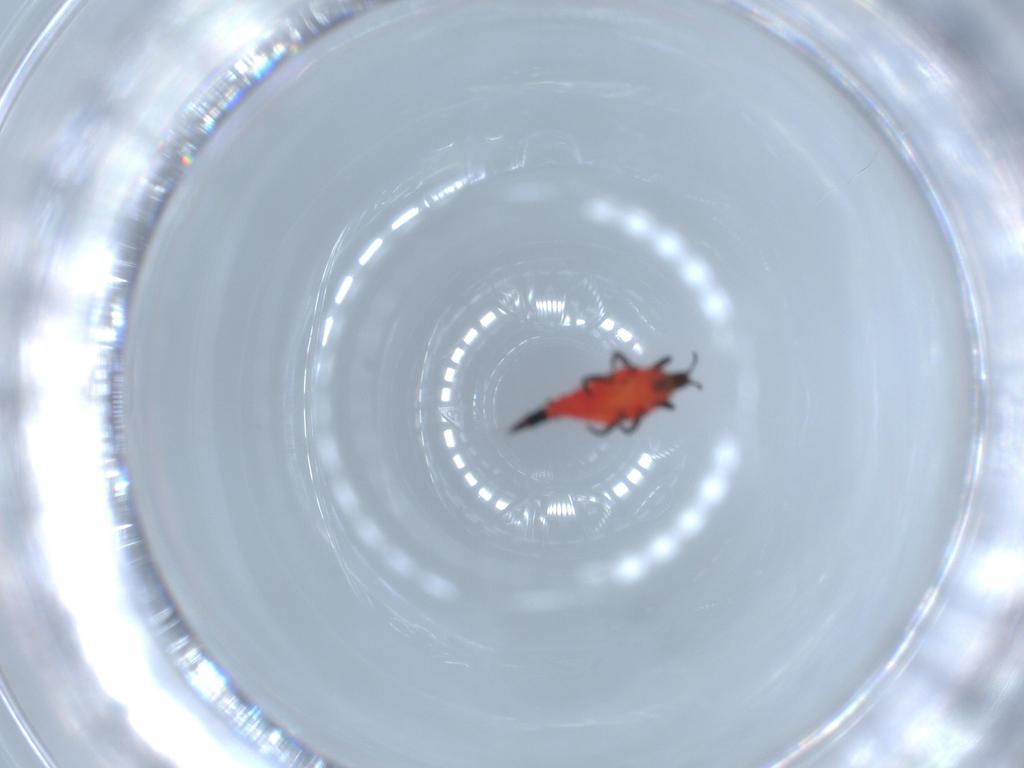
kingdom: Animalia
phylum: Arthropoda
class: Insecta
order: Thysanoptera
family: Phlaeothripidae
